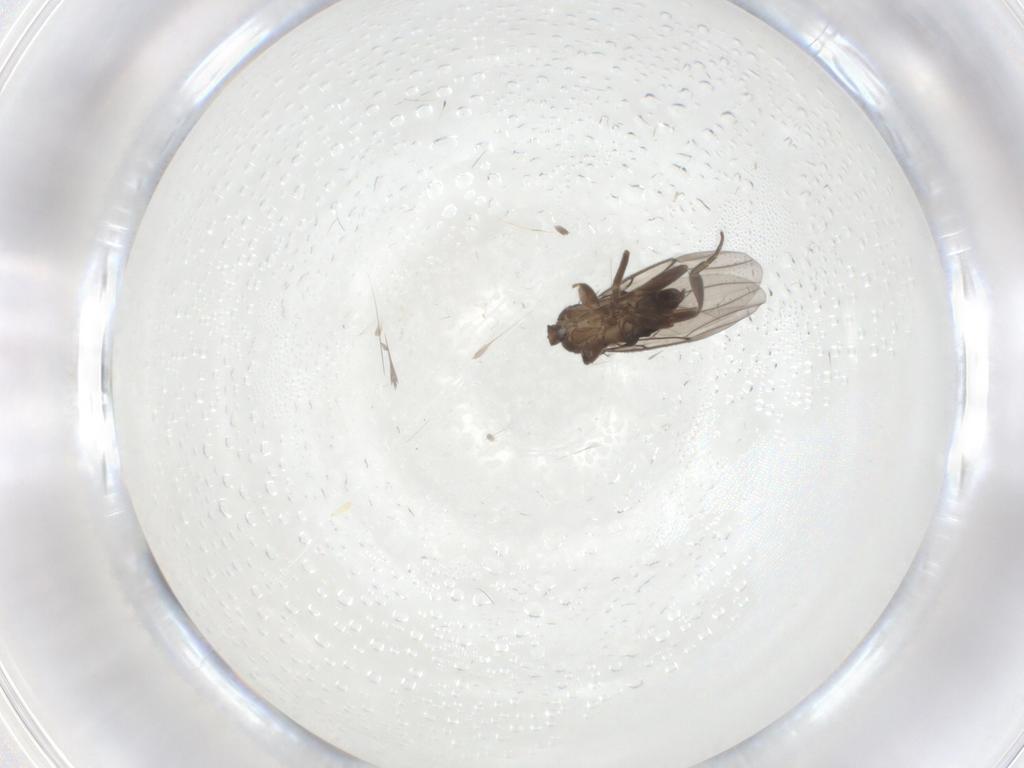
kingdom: Animalia
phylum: Arthropoda
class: Insecta
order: Diptera
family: Phoridae
